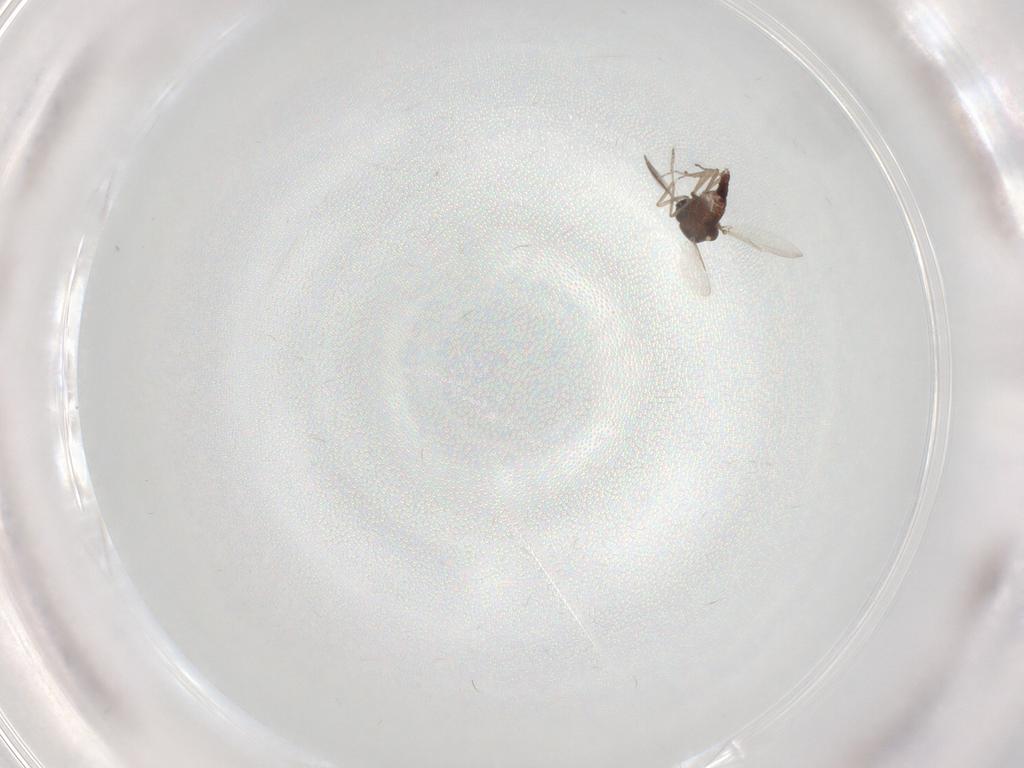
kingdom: Animalia
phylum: Arthropoda
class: Insecta
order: Diptera
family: Ceratopogonidae
